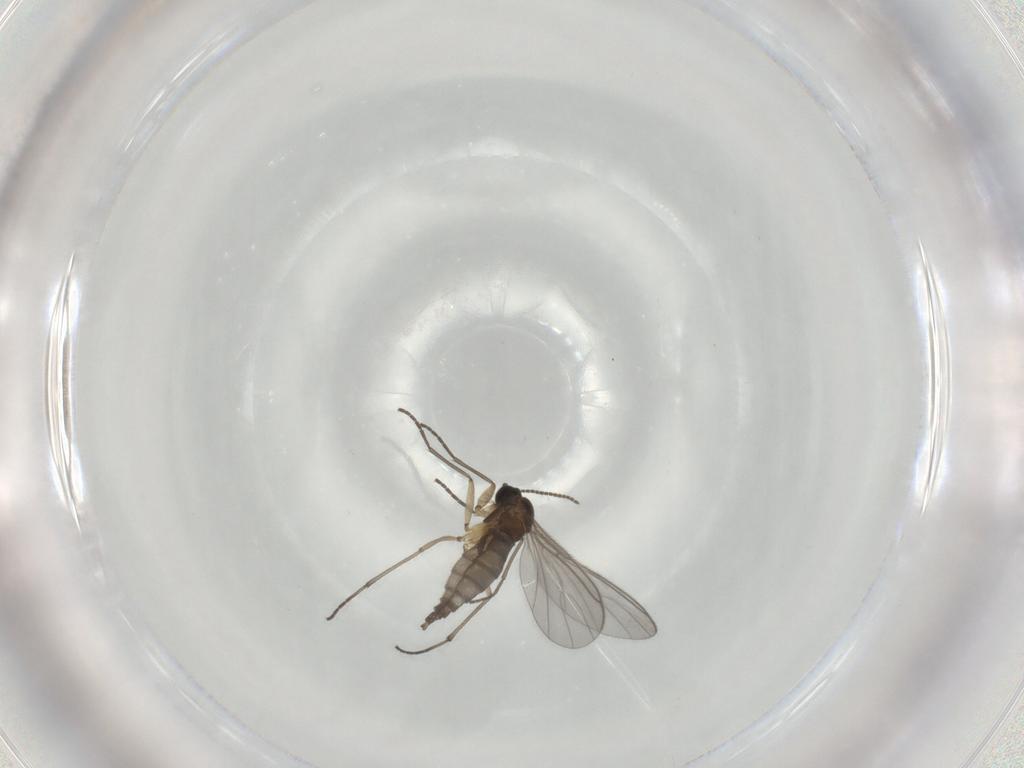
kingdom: Animalia
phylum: Arthropoda
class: Insecta
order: Diptera
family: Sciaridae
